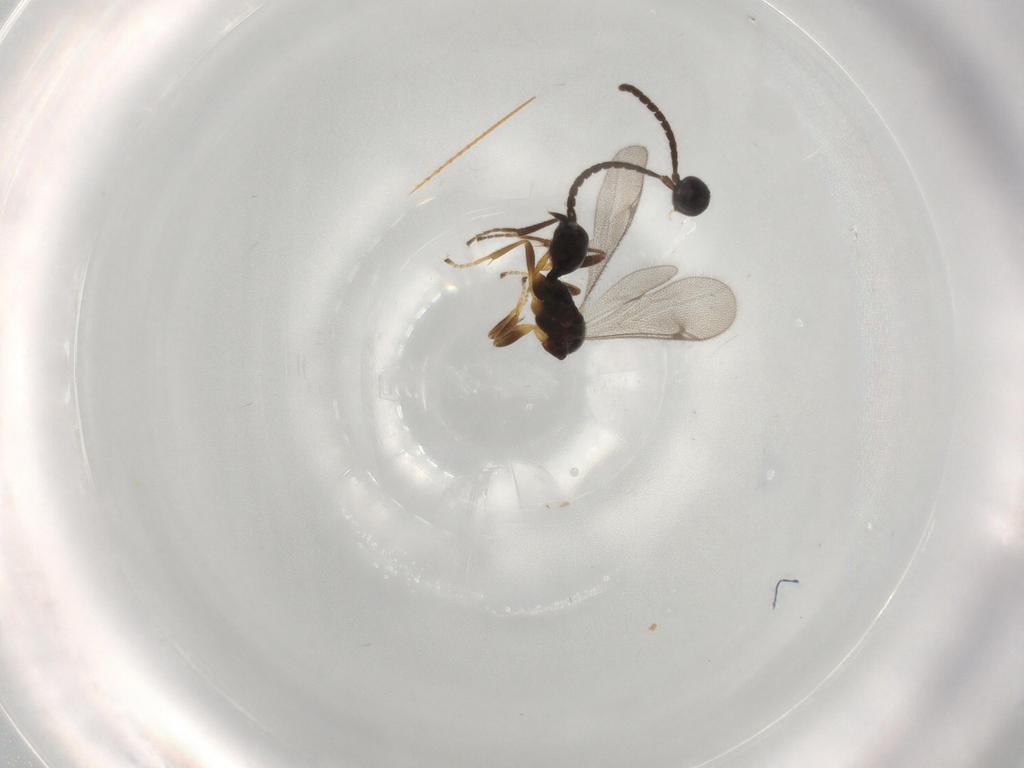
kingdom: Animalia
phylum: Arthropoda
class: Insecta
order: Hymenoptera
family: Proctotrupidae
